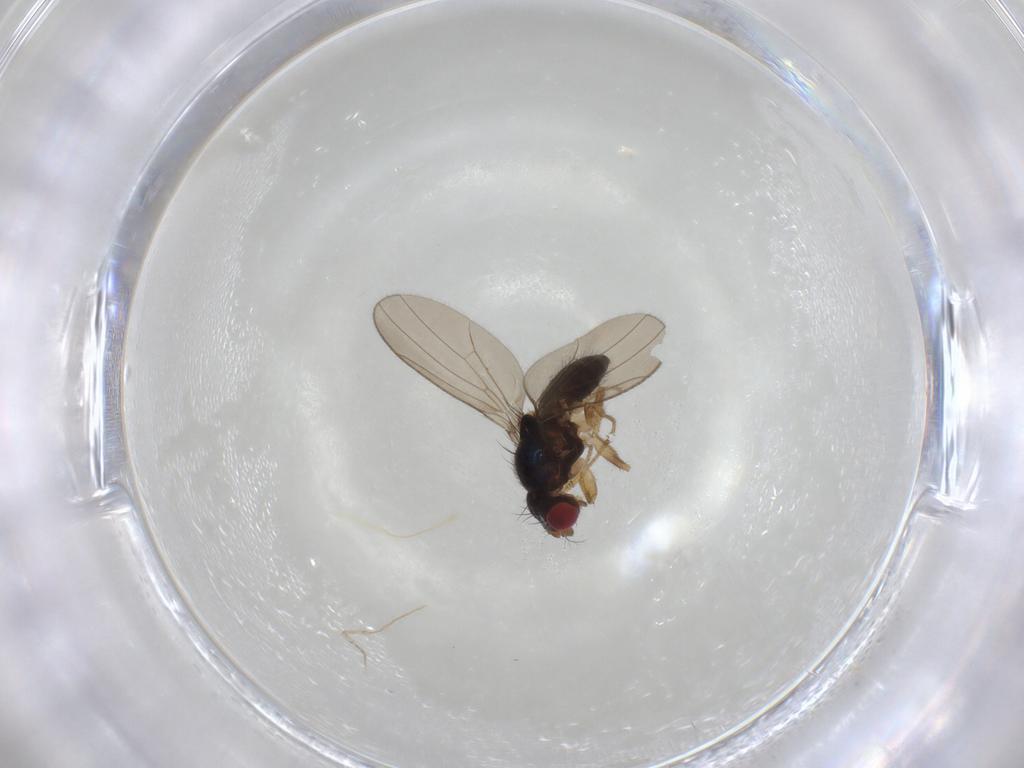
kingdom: Animalia
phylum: Arthropoda
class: Insecta
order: Diptera
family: Drosophilidae
